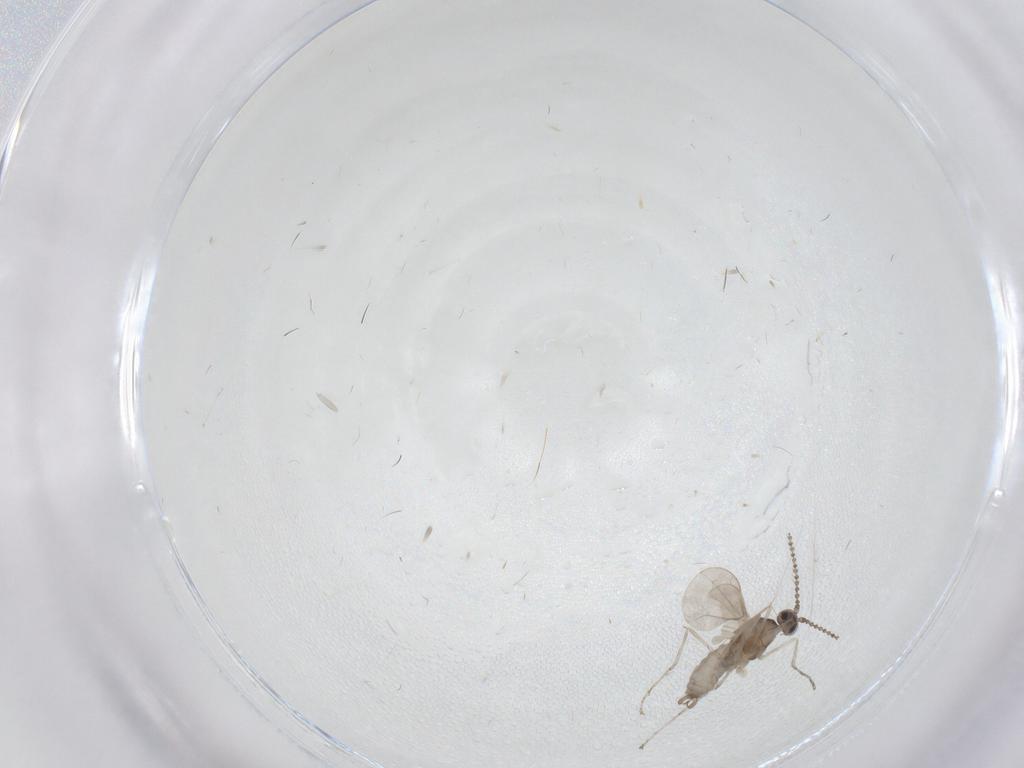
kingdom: Animalia
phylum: Arthropoda
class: Insecta
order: Diptera
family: Cecidomyiidae
